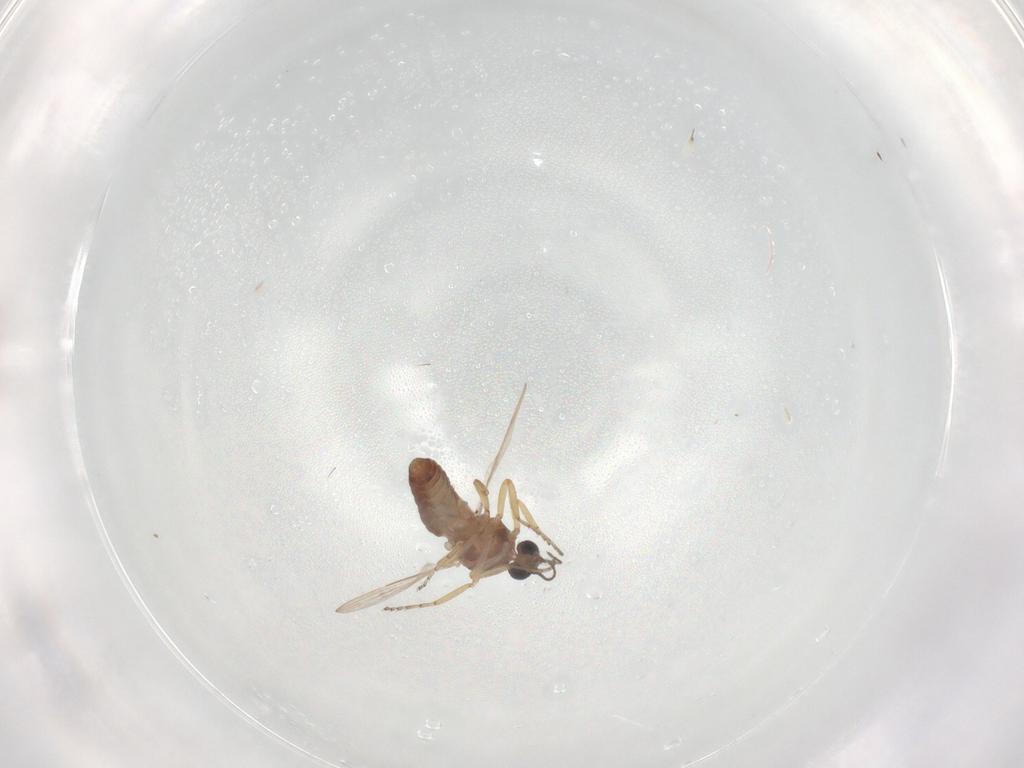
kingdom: Animalia
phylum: Arthropoda
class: Insecta
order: Diptera
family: Ceratopogonidae
